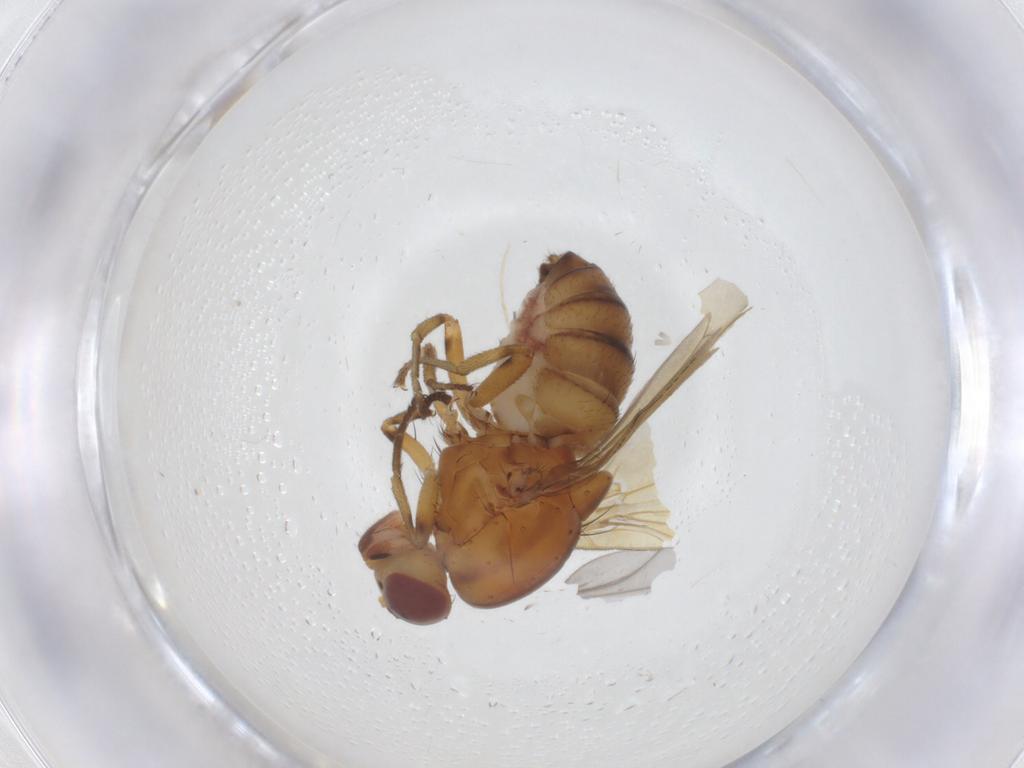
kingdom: Animalia
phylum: Arthropoda
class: Insecta
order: Diptera
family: Lauxaniidae
